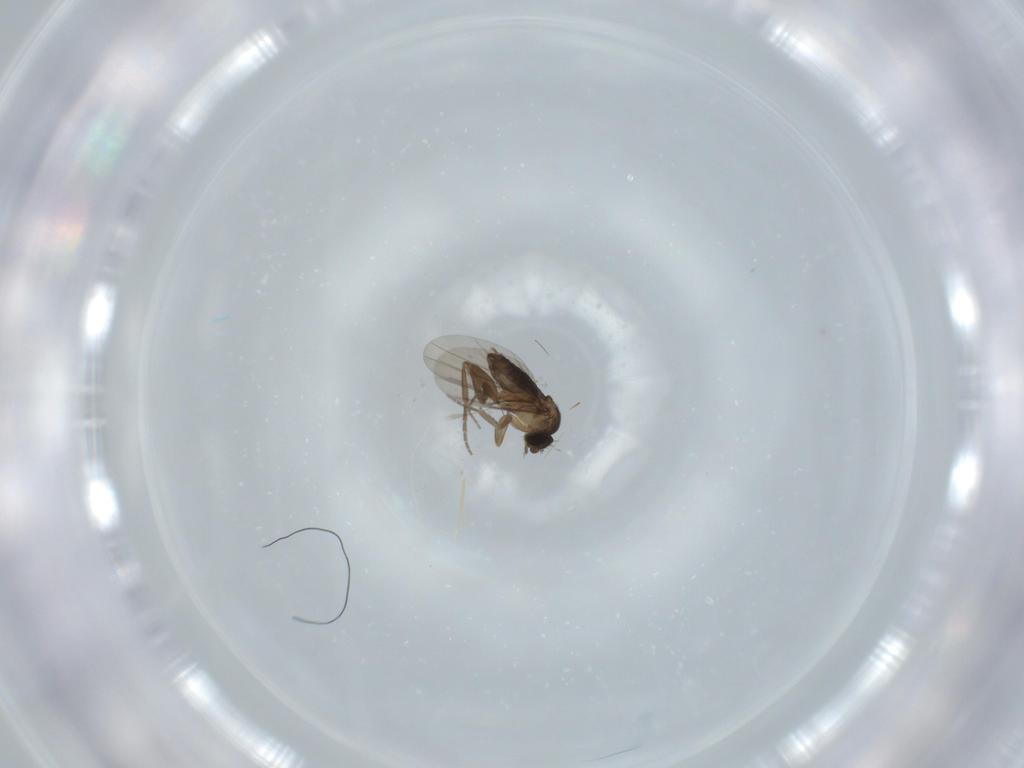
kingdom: Animalia
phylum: Arthropoda
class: Insecta
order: Diptera
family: Phoridae
